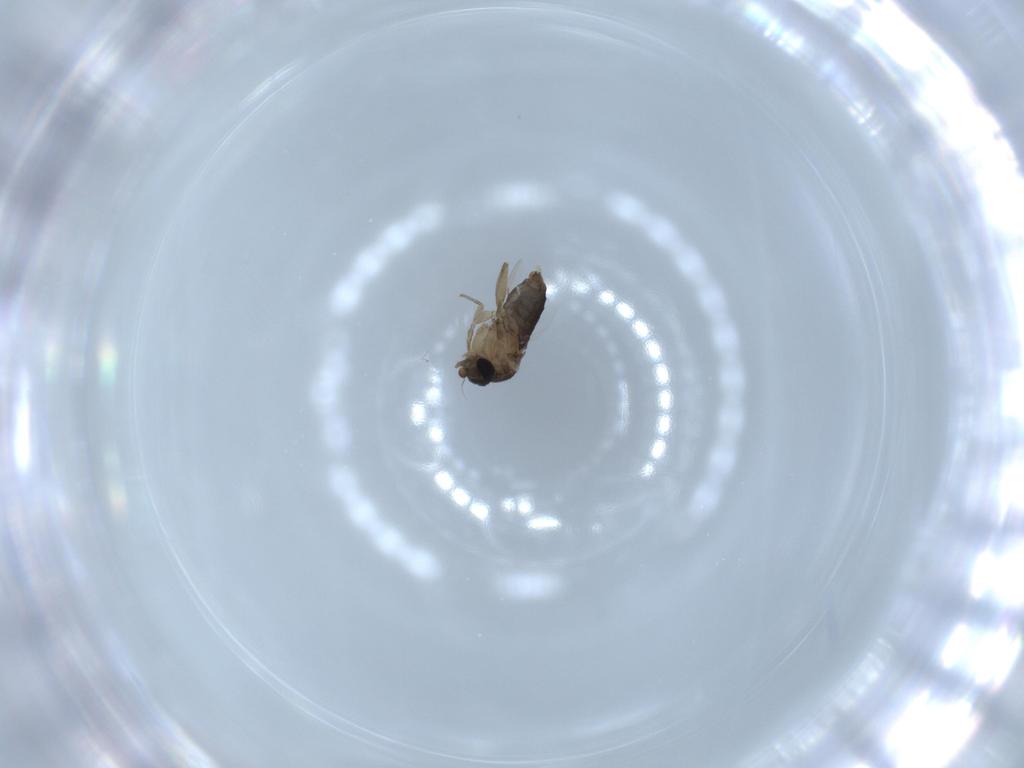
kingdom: Animalia
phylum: Arthropoda
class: Insecta
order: Diptera
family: Phoridae
